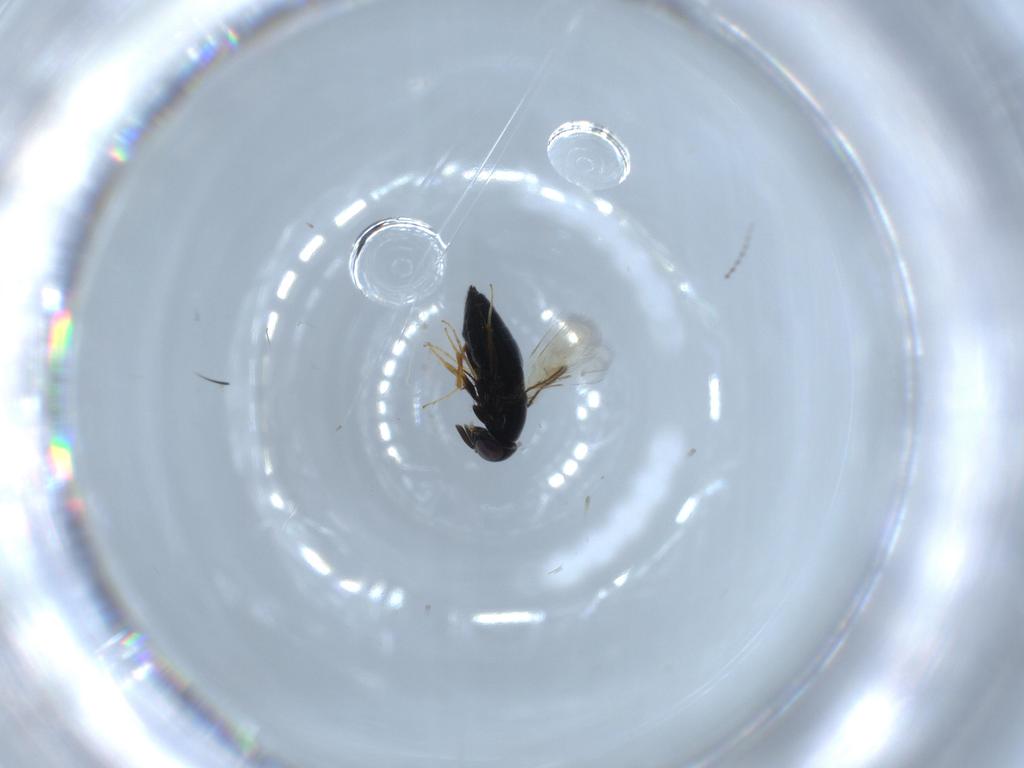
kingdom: Animalia
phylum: Arthropoda
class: Insecta
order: Hymenoptera
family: Signiphoridae
